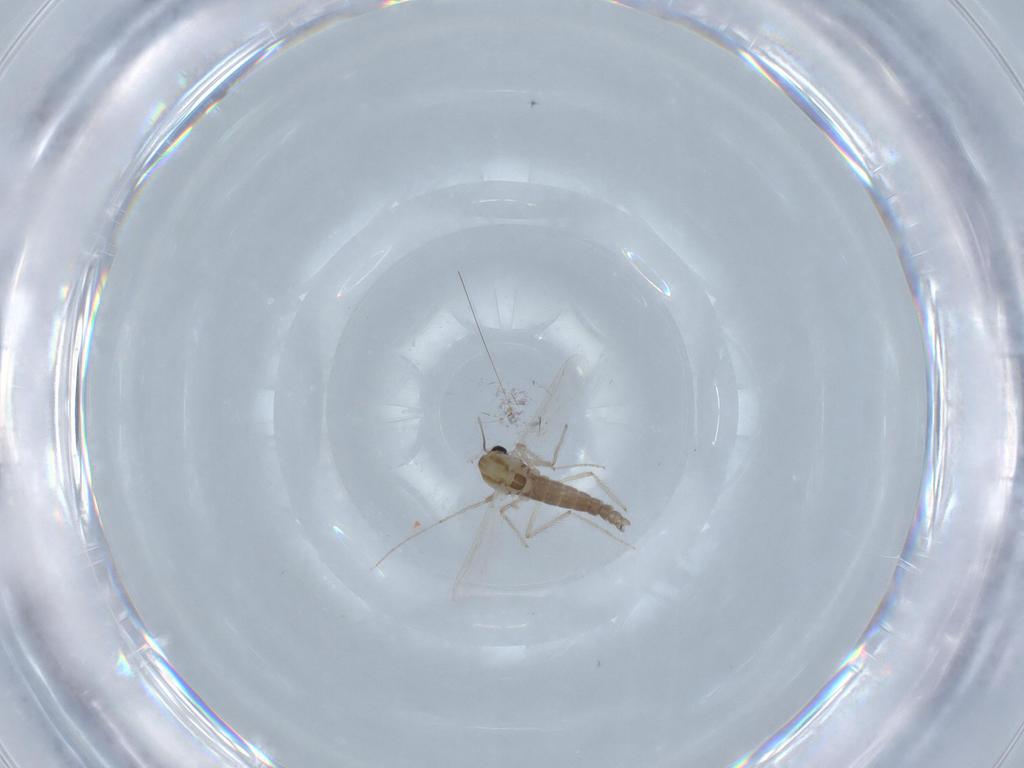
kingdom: Animalia
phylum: Arthropoda
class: Insecta
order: Diptera
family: Chironomidae
